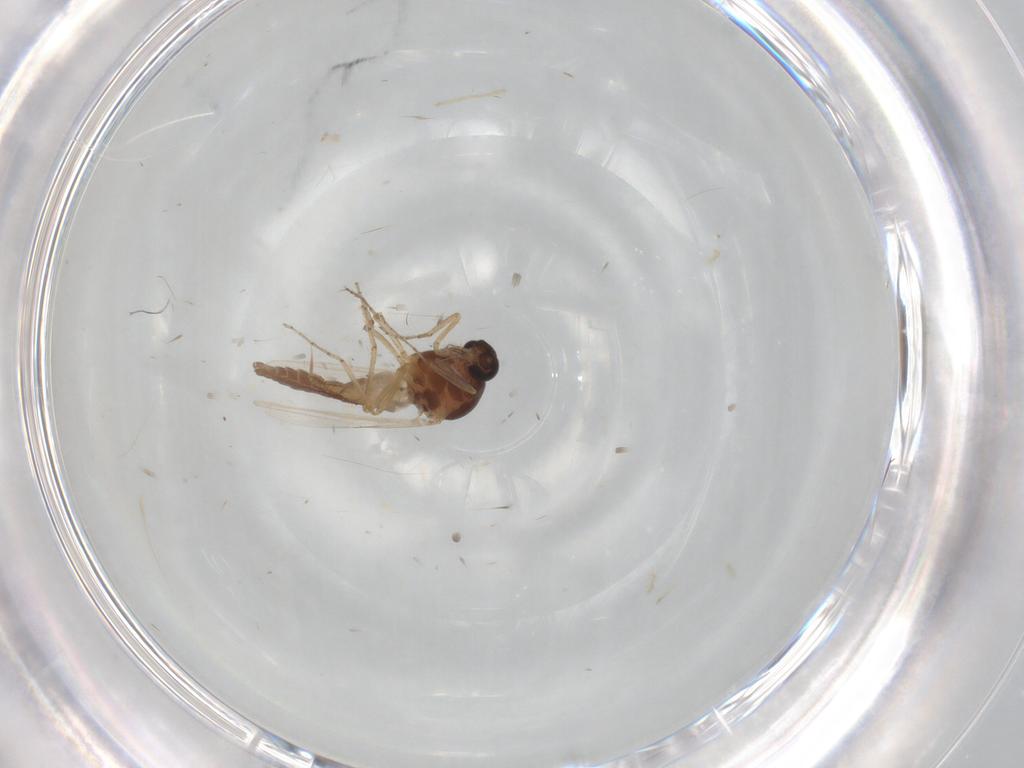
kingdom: Animalia
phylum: Arthropoda
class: Insecta
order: Diptera
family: Ceratopogonidae
